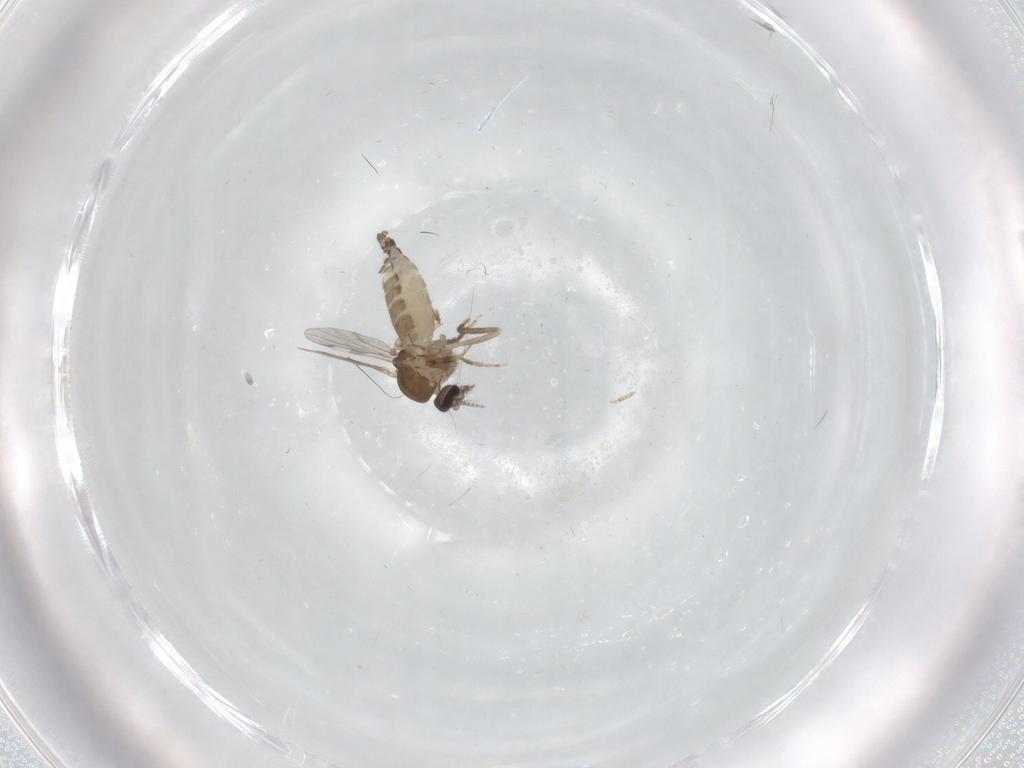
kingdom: Animalia
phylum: Arthropoda
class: Insecta
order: Diptera
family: Ceratopogonidae
